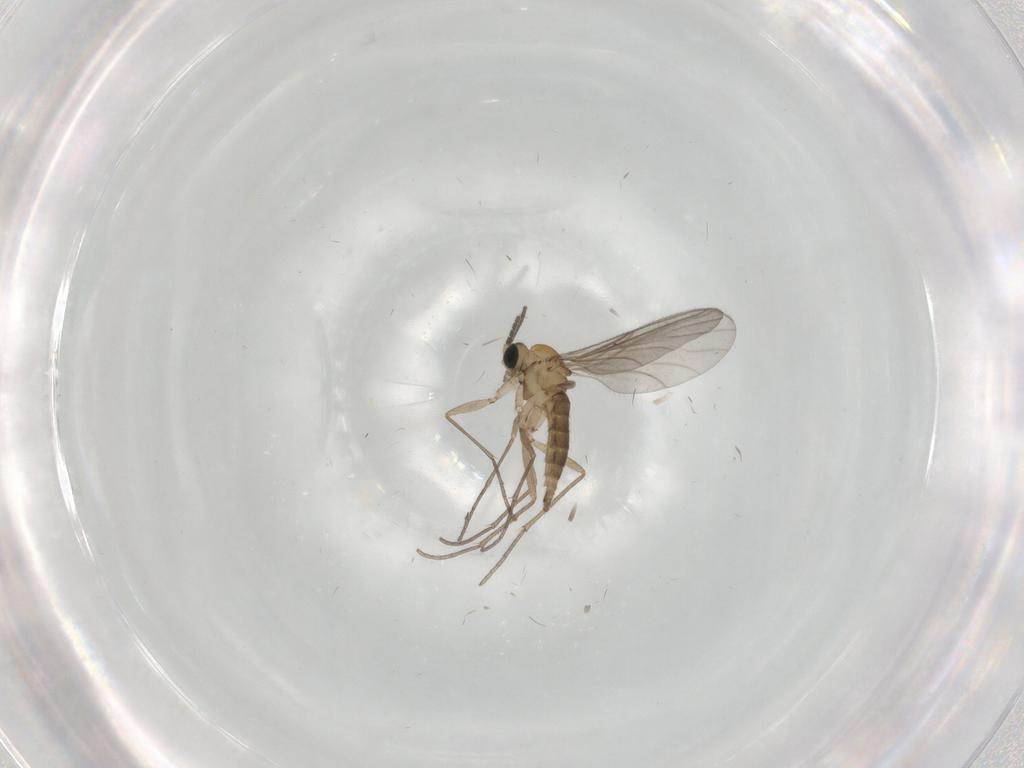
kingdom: Animalia
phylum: Arthropoda
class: Insecta
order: Diptera
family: Sciaridae
